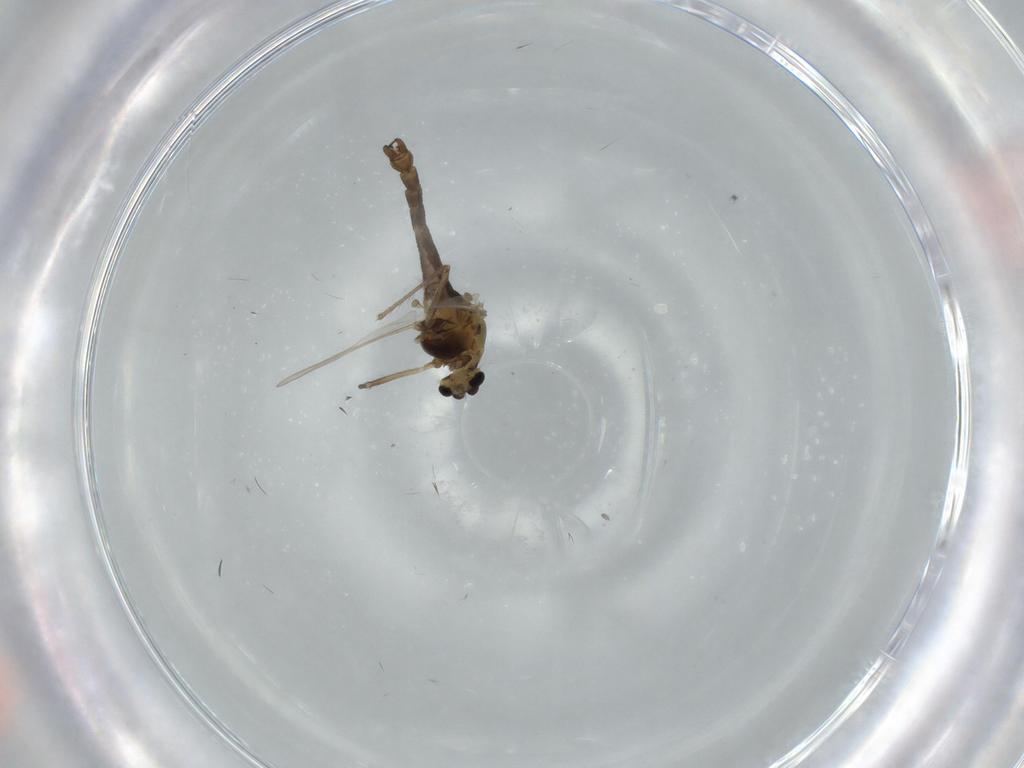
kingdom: Animalia
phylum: Arthropoda
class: Insecta
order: Diptera
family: Chironomidae
